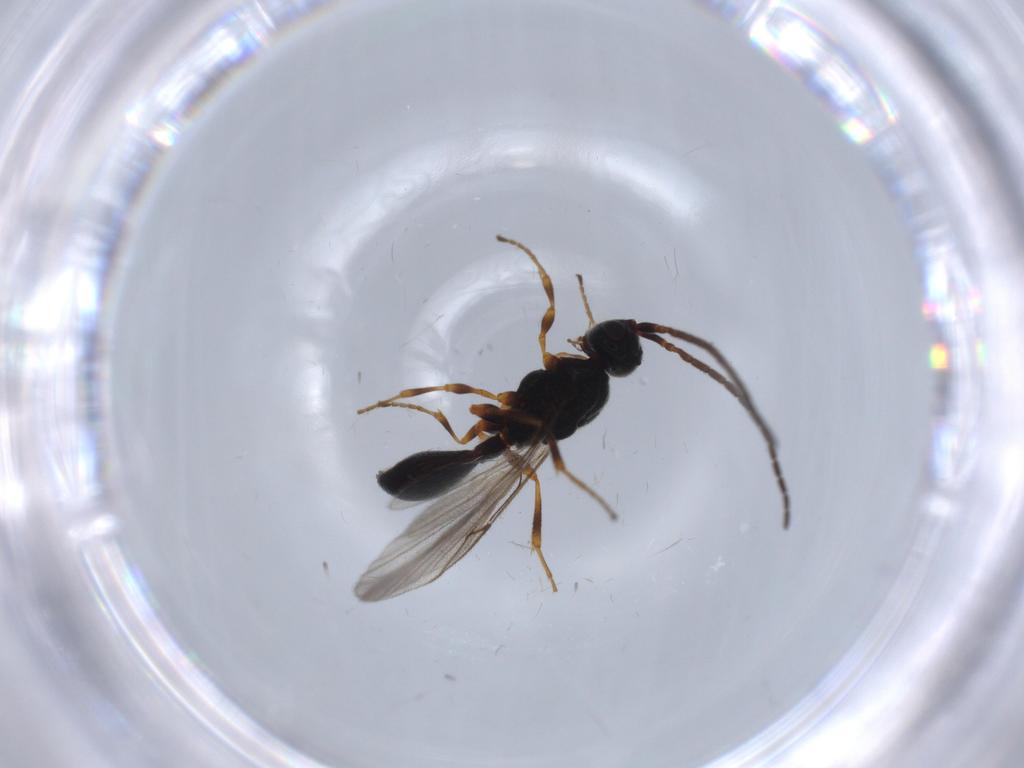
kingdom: Animalia
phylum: Arthropoda
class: Insecta
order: Hymenoptera
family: Diapriidae
